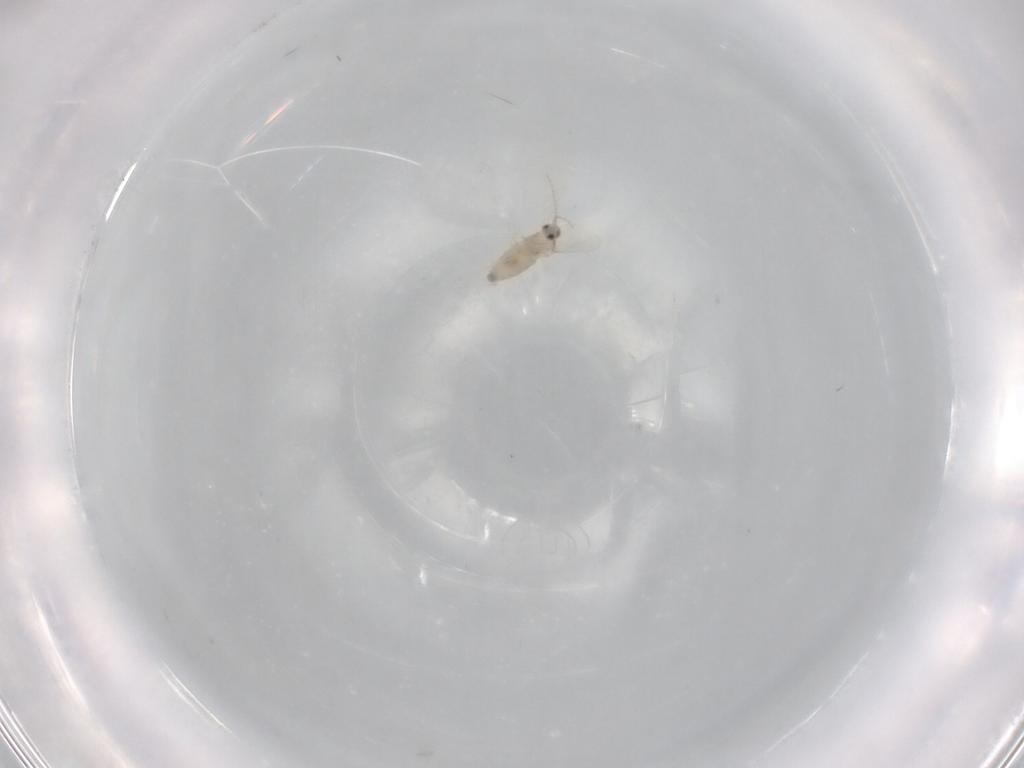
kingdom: Animalia
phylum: Arthropoda
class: Insecta
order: Diptera
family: Cecidomyiidae
